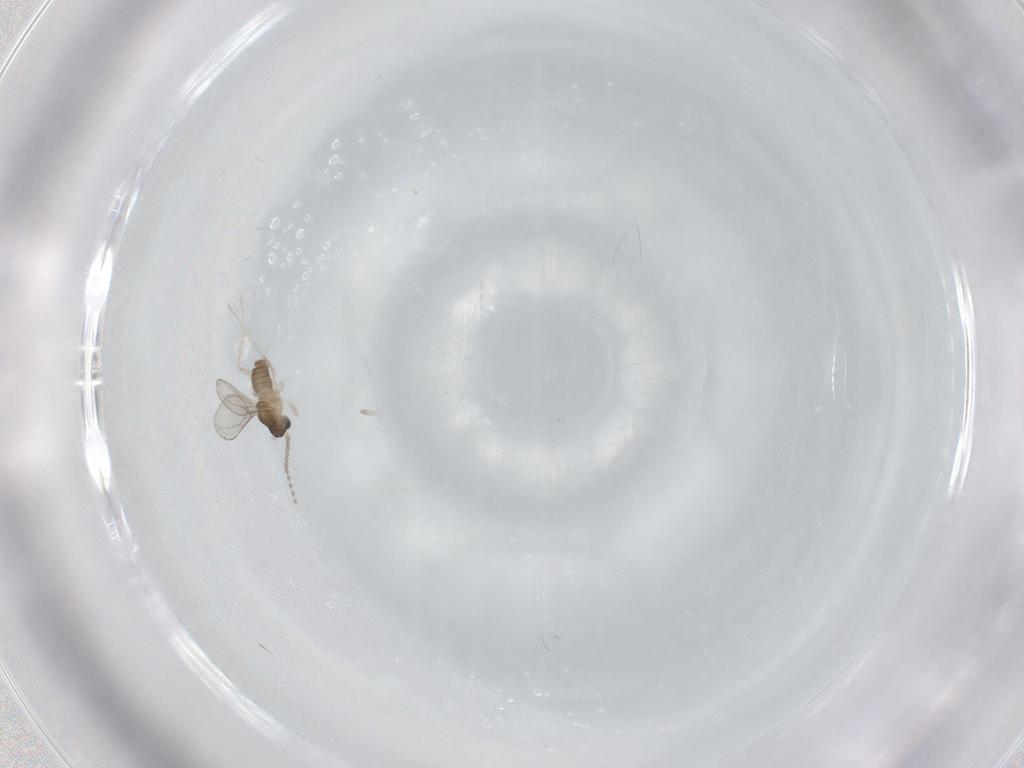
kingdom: Animalia
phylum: Arthropoda
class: Insecta
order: Diptera
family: Cecidomyiidae
